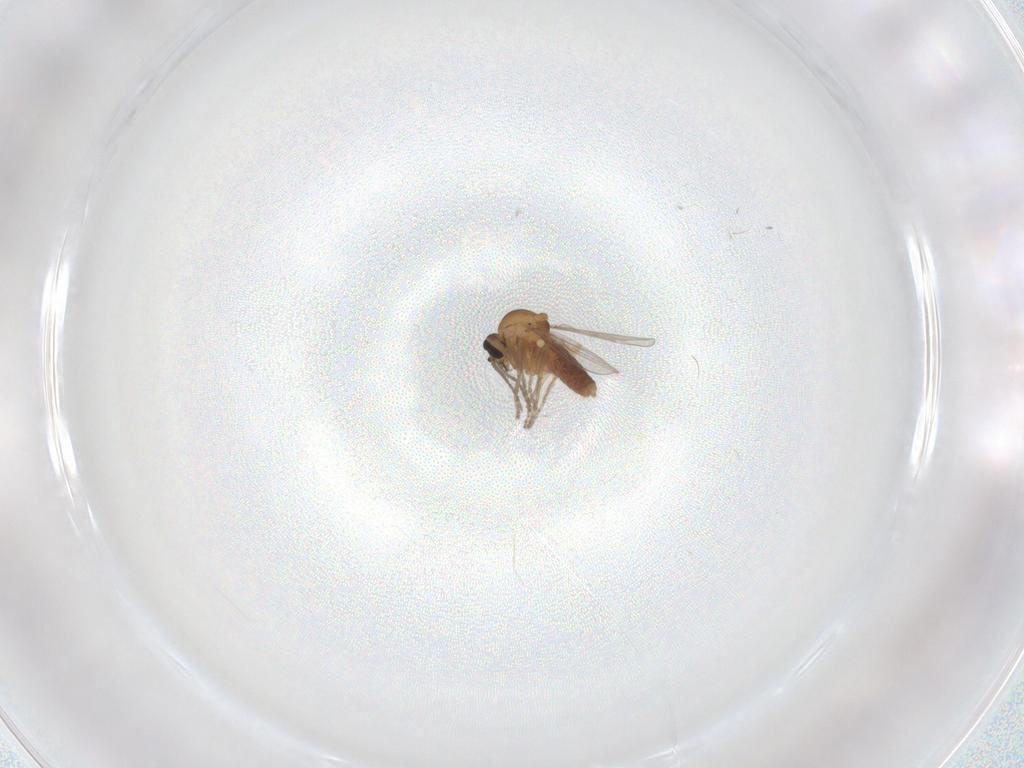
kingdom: Animalia
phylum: Arthropoda
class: Insecta
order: Diptera
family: Ceratopogonidae
